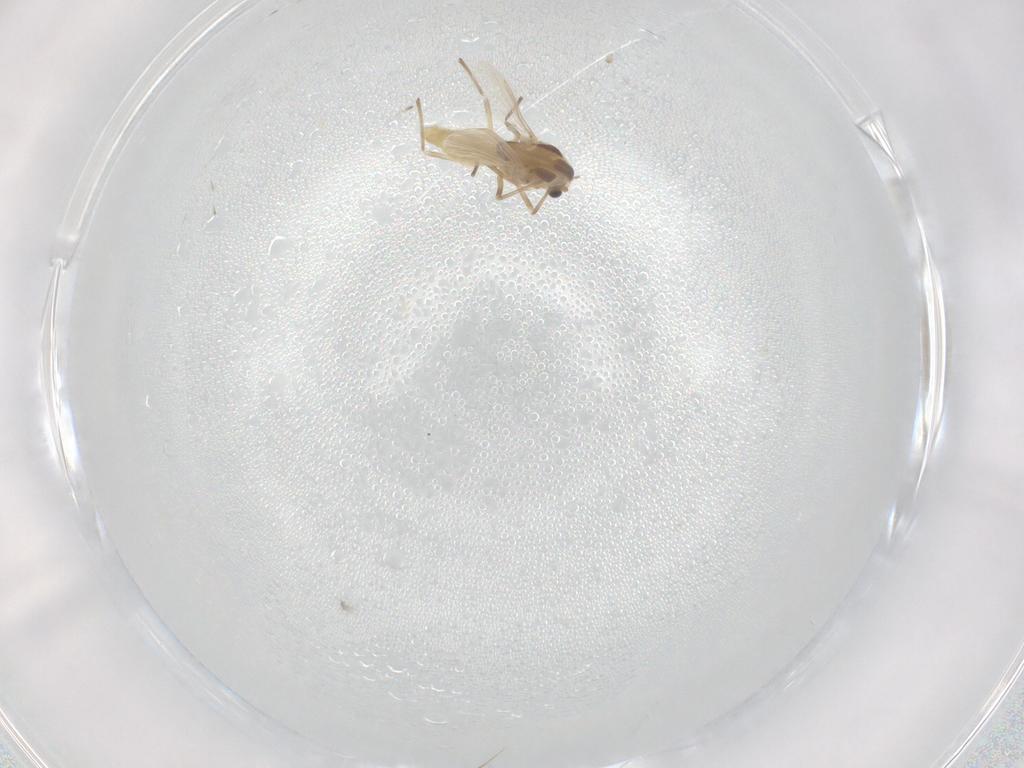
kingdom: Animalia
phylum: Arthropoda
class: Insecta
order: Diptera
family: Chironomidae
